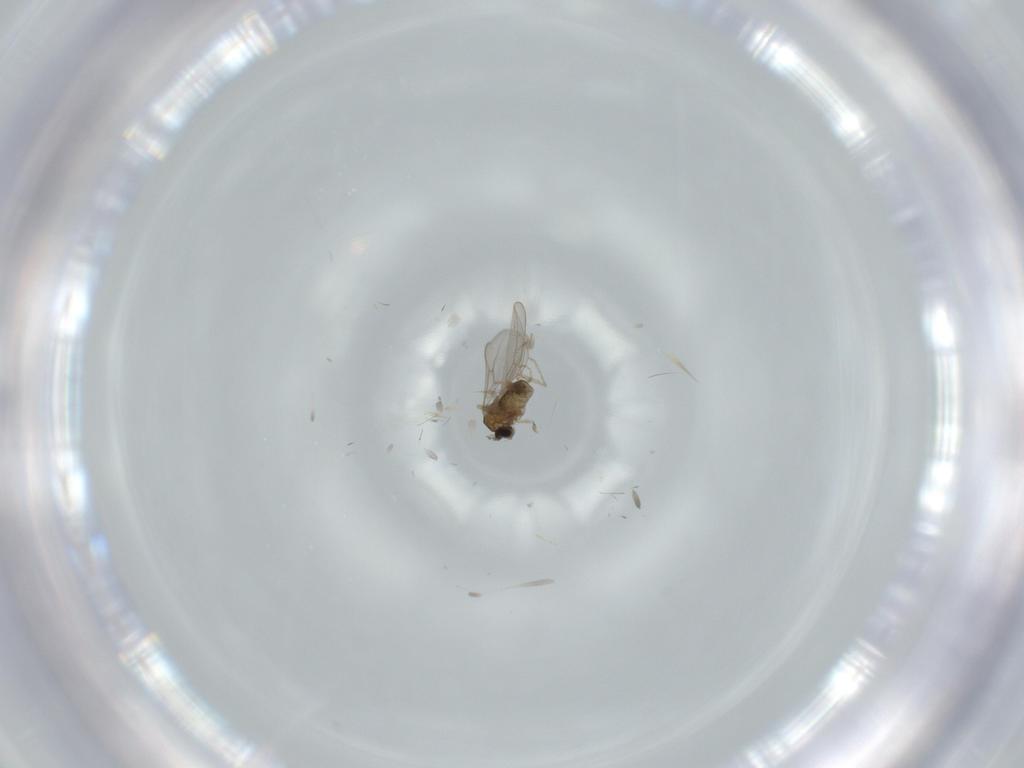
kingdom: Animalia
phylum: Arthropoda
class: Insecta
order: Diptera
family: Cecidomyiidae
